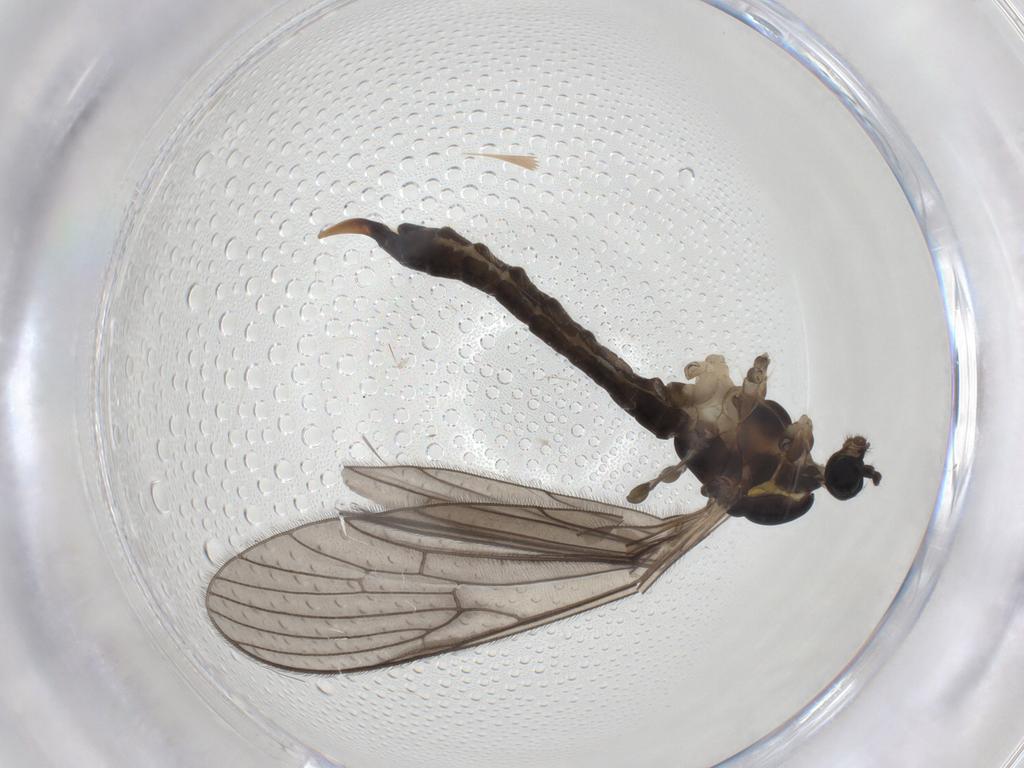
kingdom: Animalia
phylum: Arthropoda
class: Insecta
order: Diptera
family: Limoniidae
